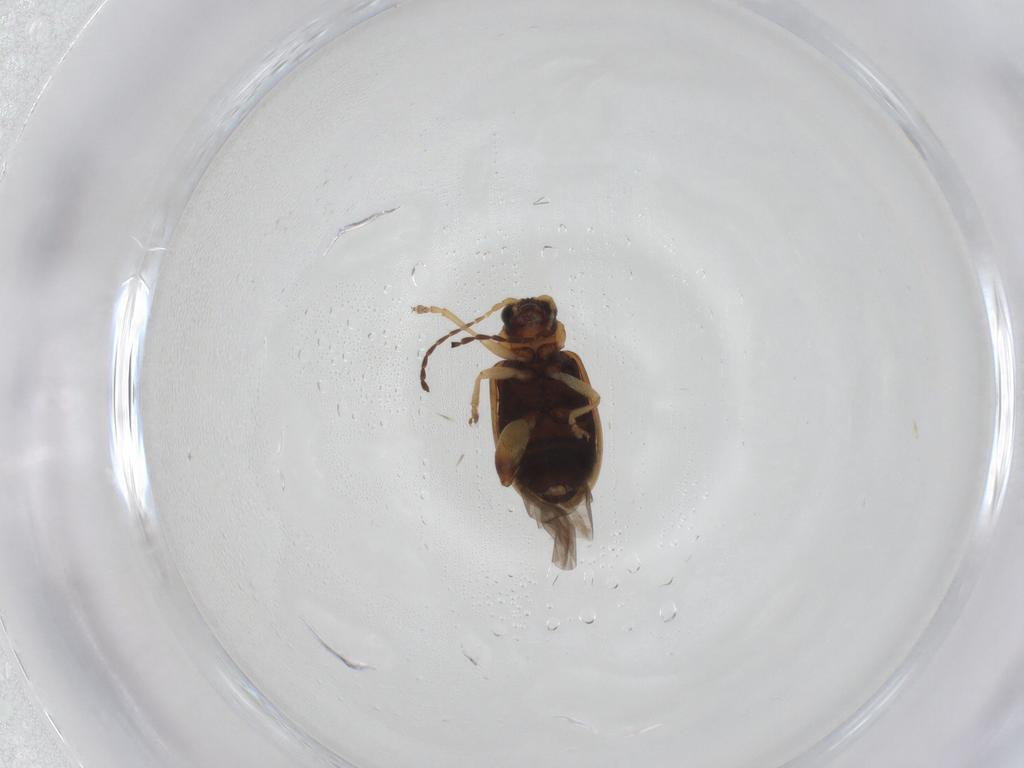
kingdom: Animalia
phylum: Arthropoda
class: Insecta
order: Coleoptera
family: Chrysomelidae
